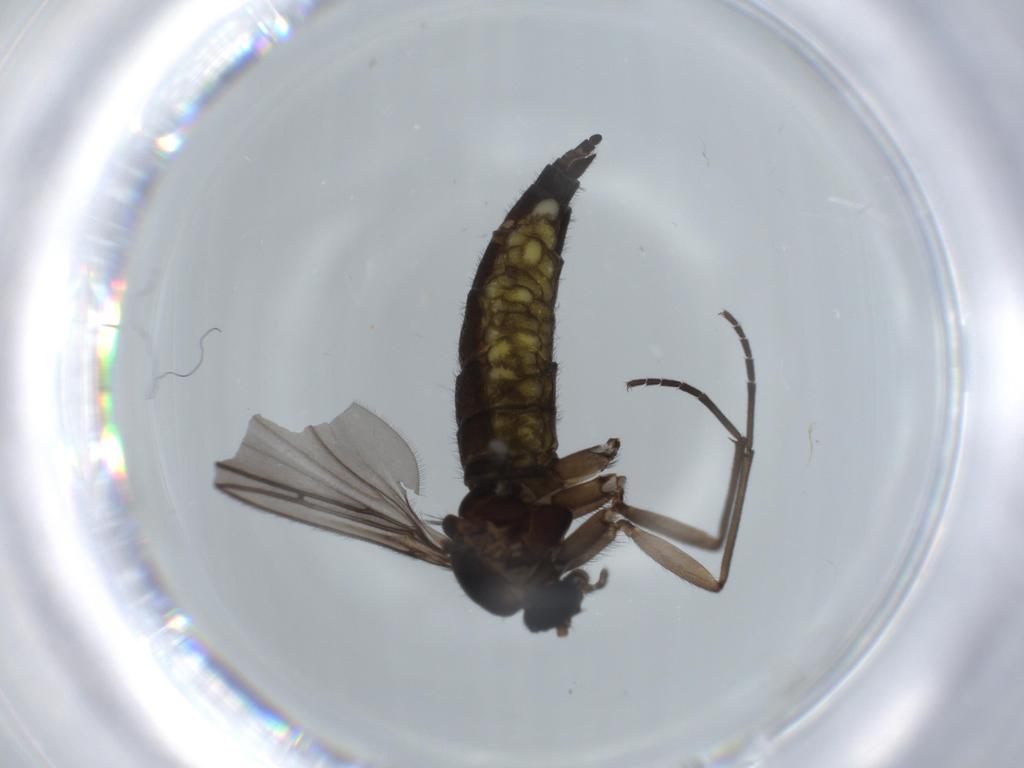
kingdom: Animalia
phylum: Arthropoda
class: Insecta
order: Diptera
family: Sciaridae
